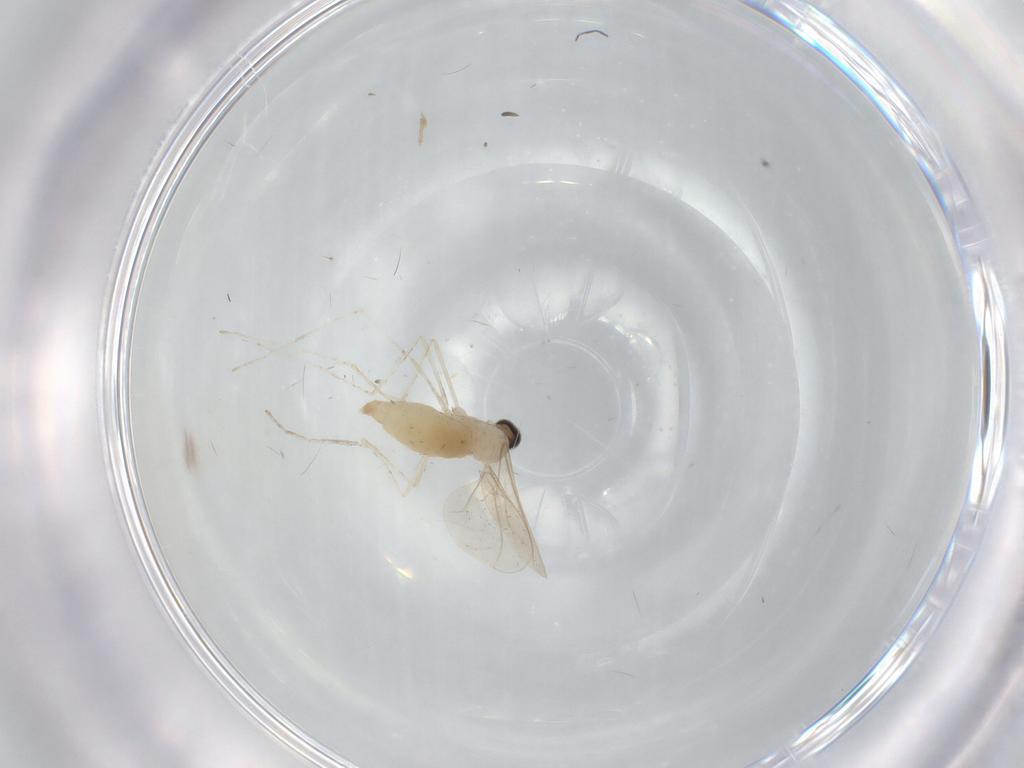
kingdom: Animalia
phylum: Arthropoda
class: Insecta
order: Diptera
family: Cecidomyiidae
